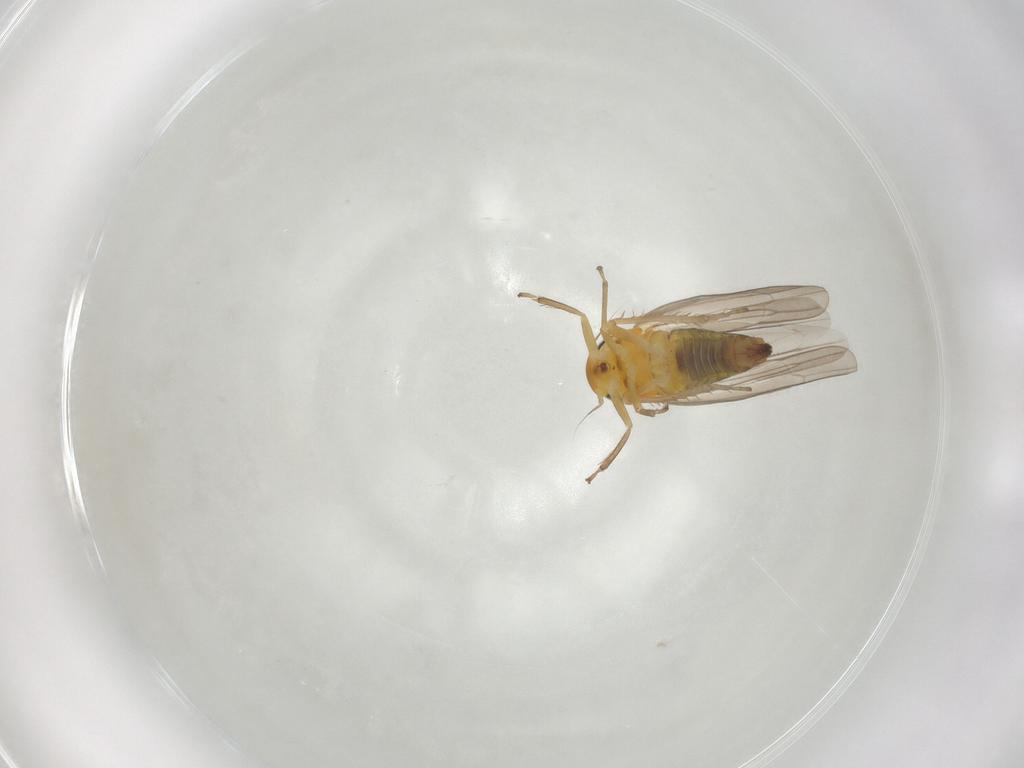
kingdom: Animalia
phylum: Arthropoda
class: Insecta
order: Hemiptera
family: Cicadellidae
